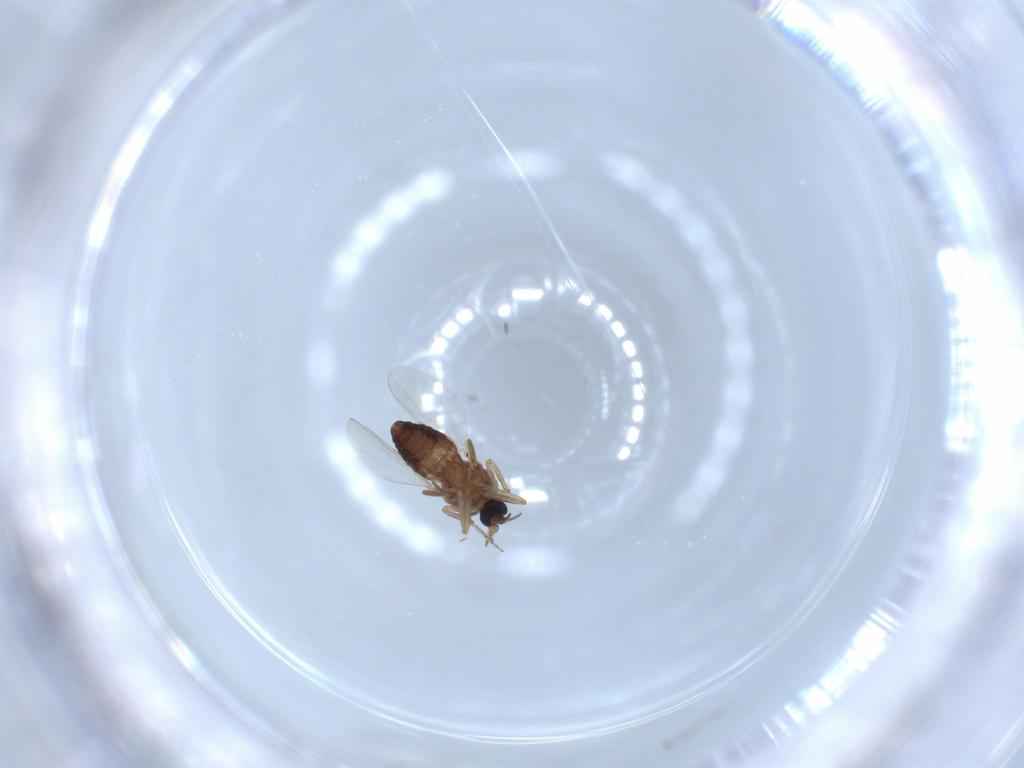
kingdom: Animalia
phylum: Arthropoda
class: Insecta
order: Diptera
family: Ceratopogonidae
